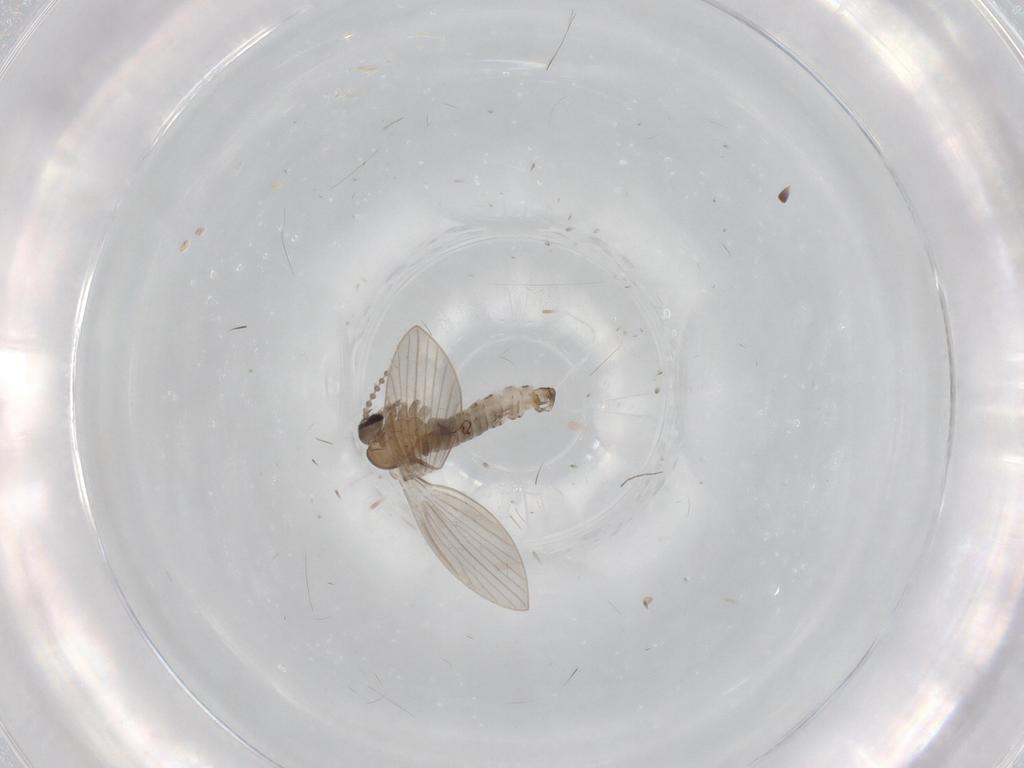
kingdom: Animalia
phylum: Arthropoda
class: Insecta
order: Diptera
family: Psychodidae
